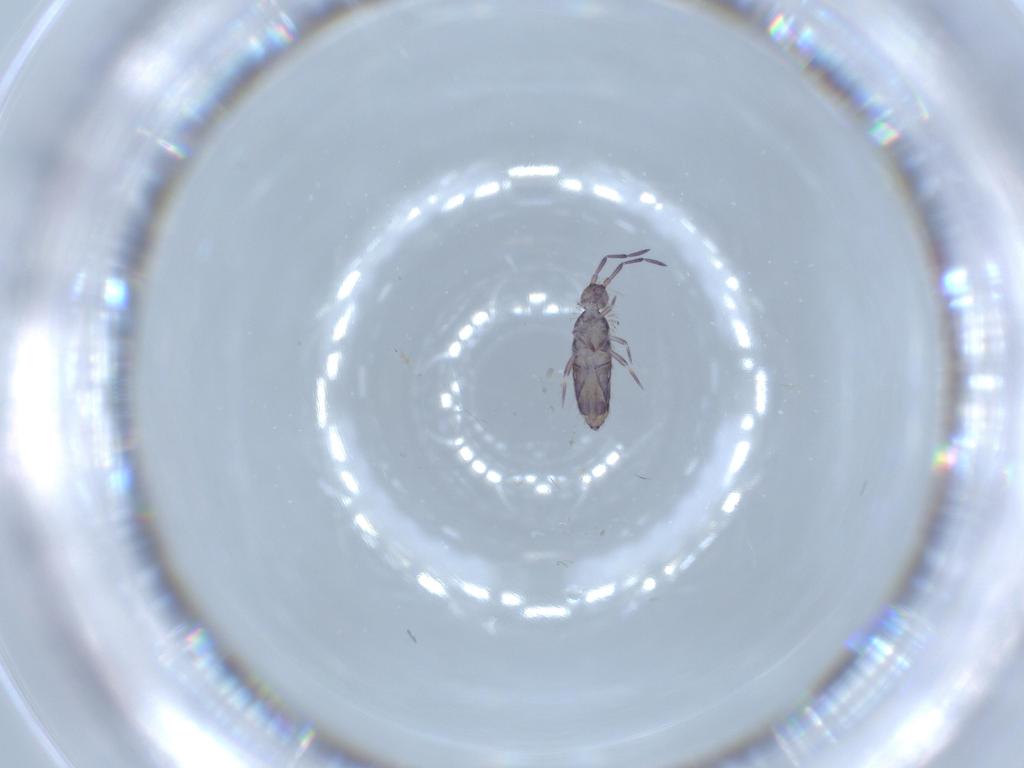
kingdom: Animalia
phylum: Arthropoda
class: Collembola
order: Entomobryomorpha
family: Entomobryidae
